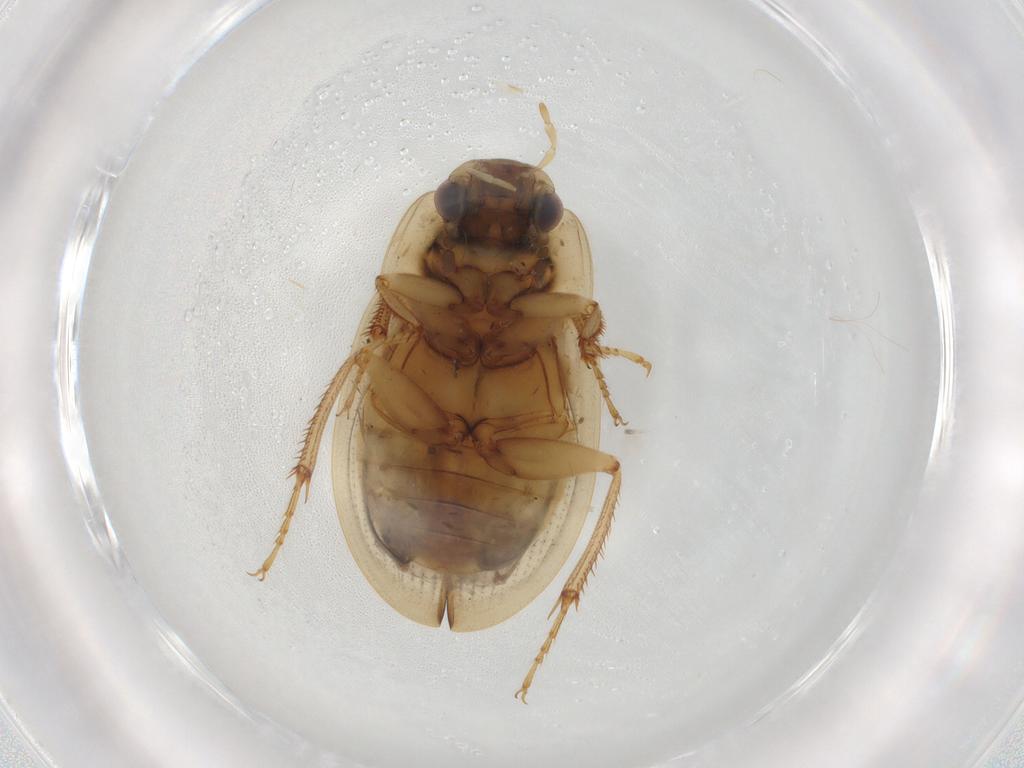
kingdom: Animalia
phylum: Arthropoda
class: Insecta
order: Coleoptera
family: Hydrophilidae
